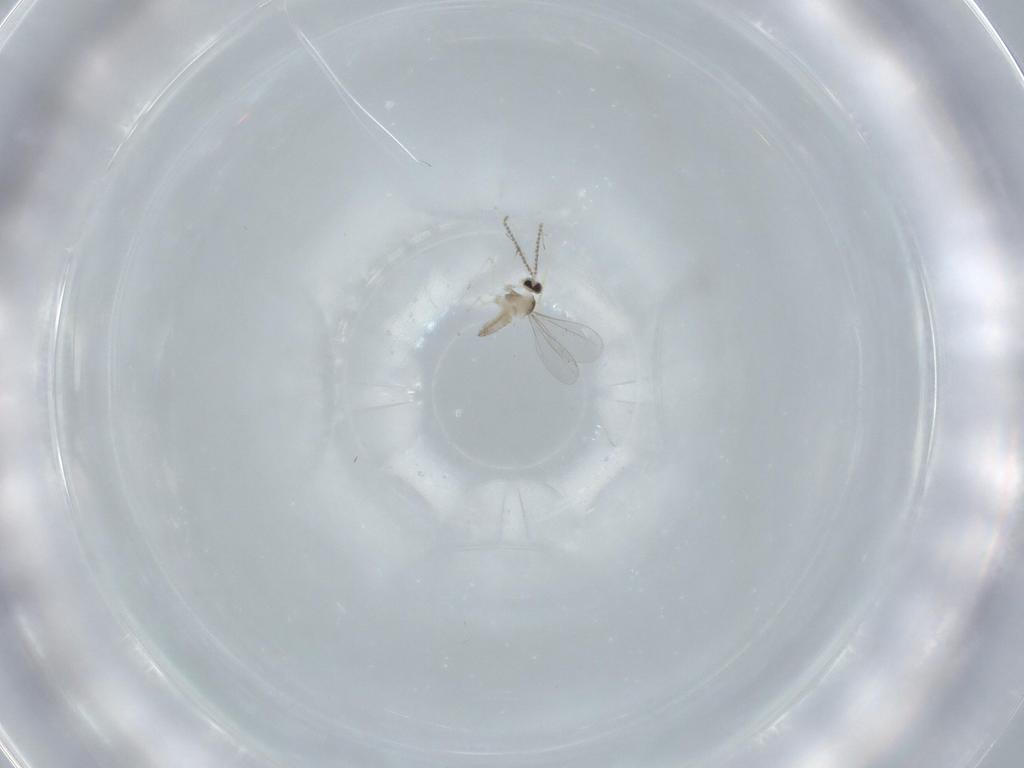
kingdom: Animalia
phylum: Arthropoda
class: Insecta
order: Diptera
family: Cecidomyiidae
